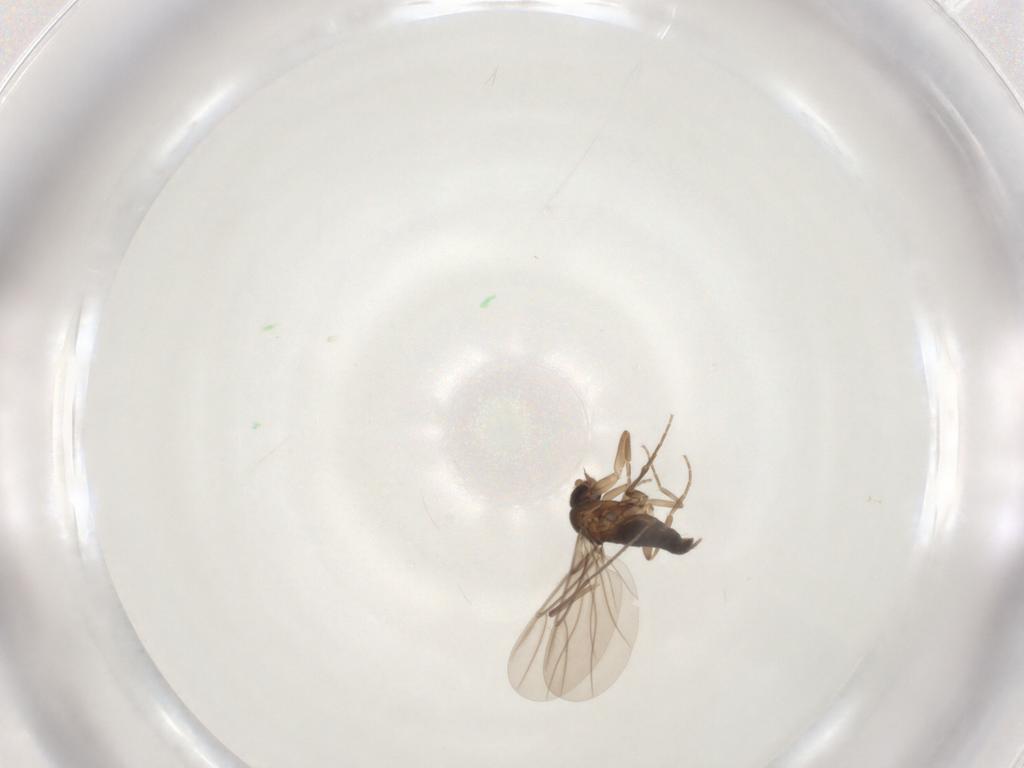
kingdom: Animalia
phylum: Arthropoda
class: Insecta
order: Diptera
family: Chironomidae
